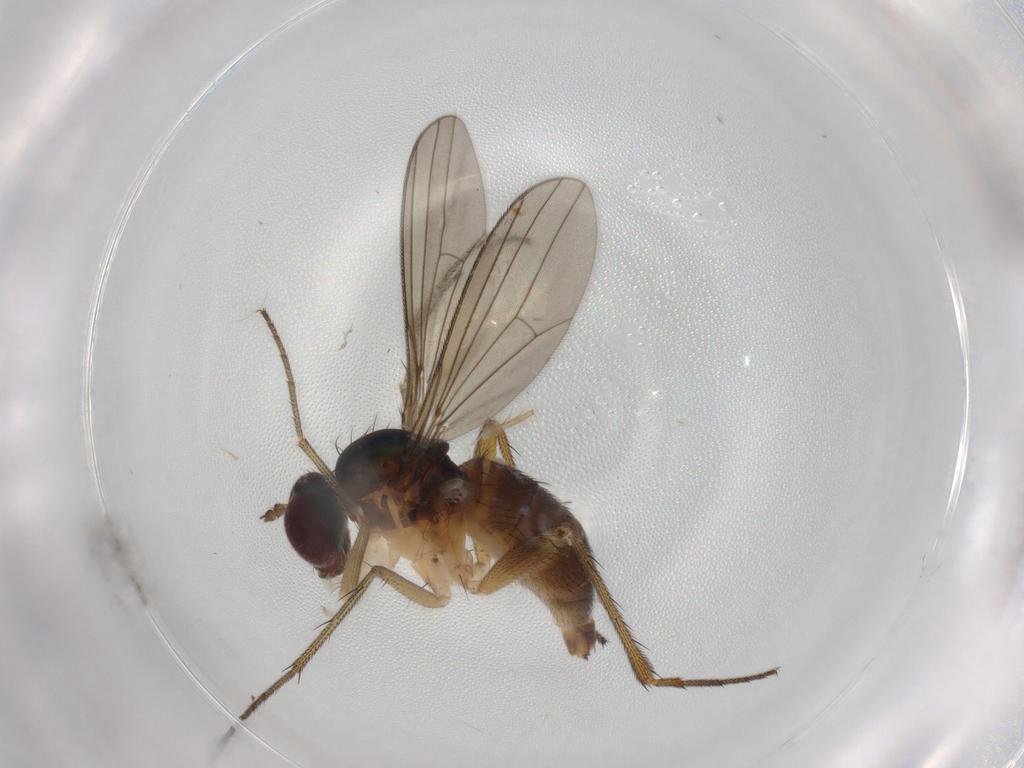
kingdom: Animalia
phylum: Arthropoda
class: Insecta
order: Diptera
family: Dolichopodidae
